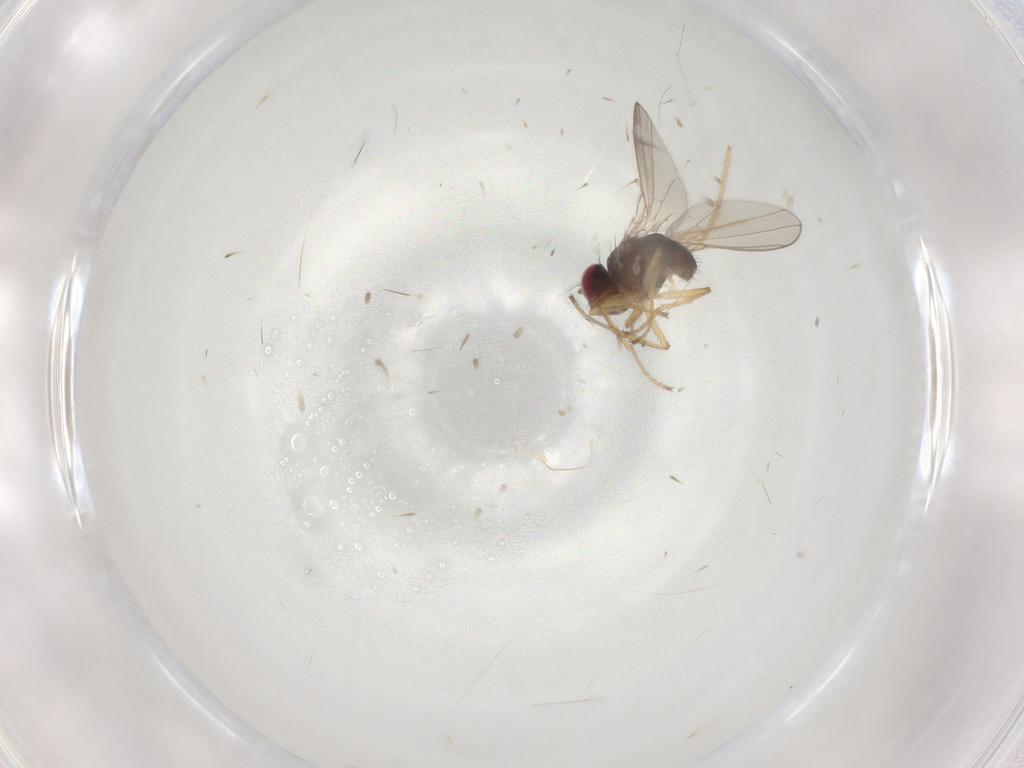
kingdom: Animalia
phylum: Arthropoda
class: Insecta
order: Diptera
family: Ephydridae
